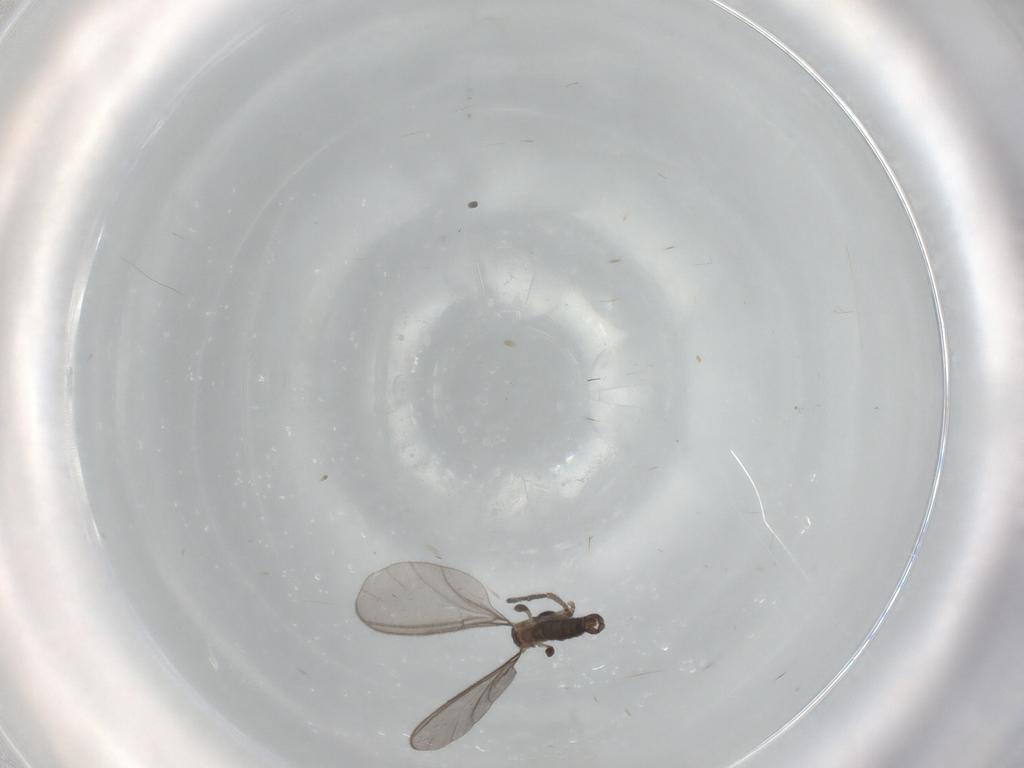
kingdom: Animalia
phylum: Arthropoda
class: Insecta
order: Diptera
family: Sciaridae
